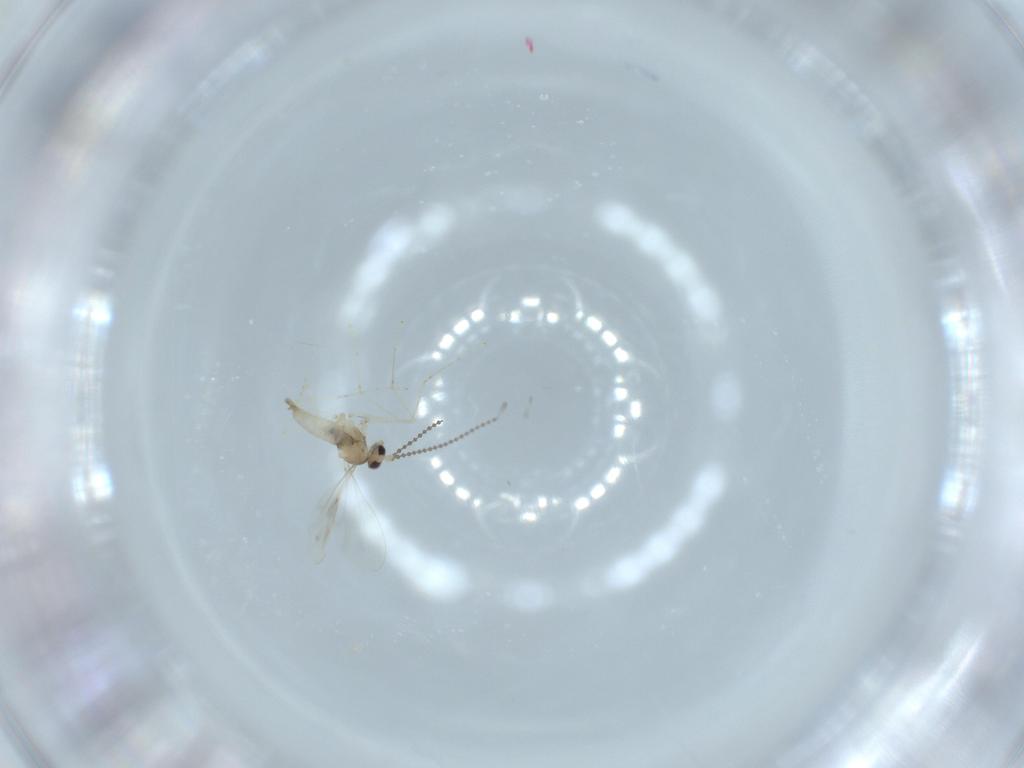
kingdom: Animalia
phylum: Arthropoda
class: Insecta
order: Diptera
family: Cecidomyiidae
